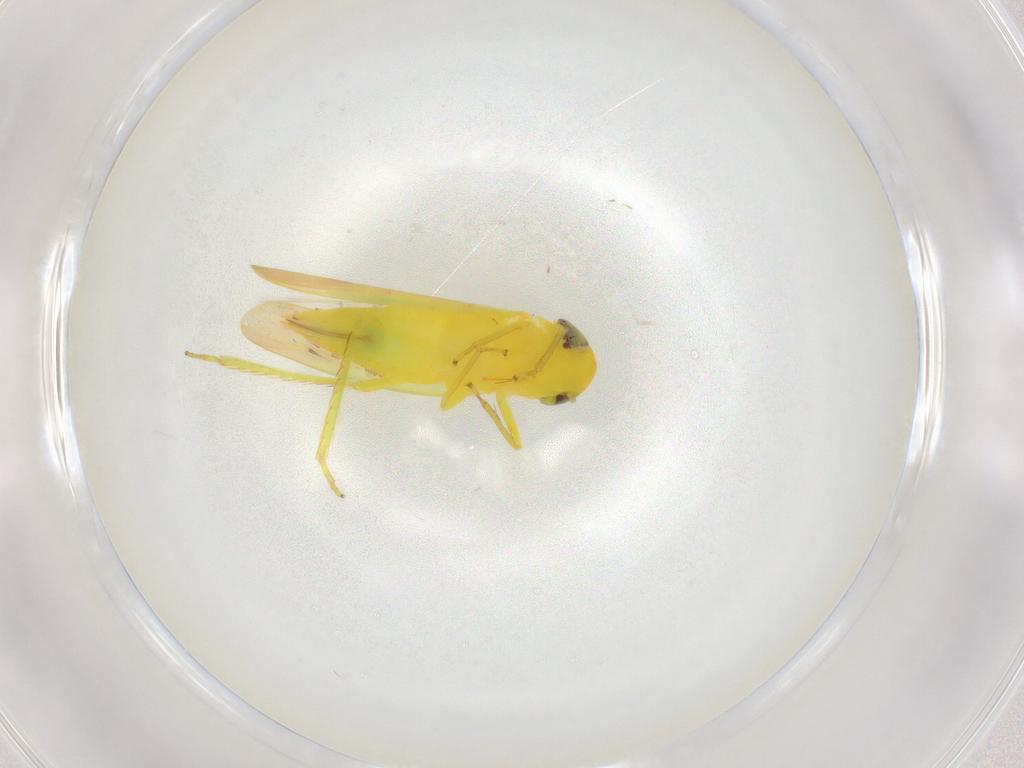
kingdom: Animalia
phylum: Arthropoda
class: Insecta
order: Hemiptera
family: Cicadellidae
